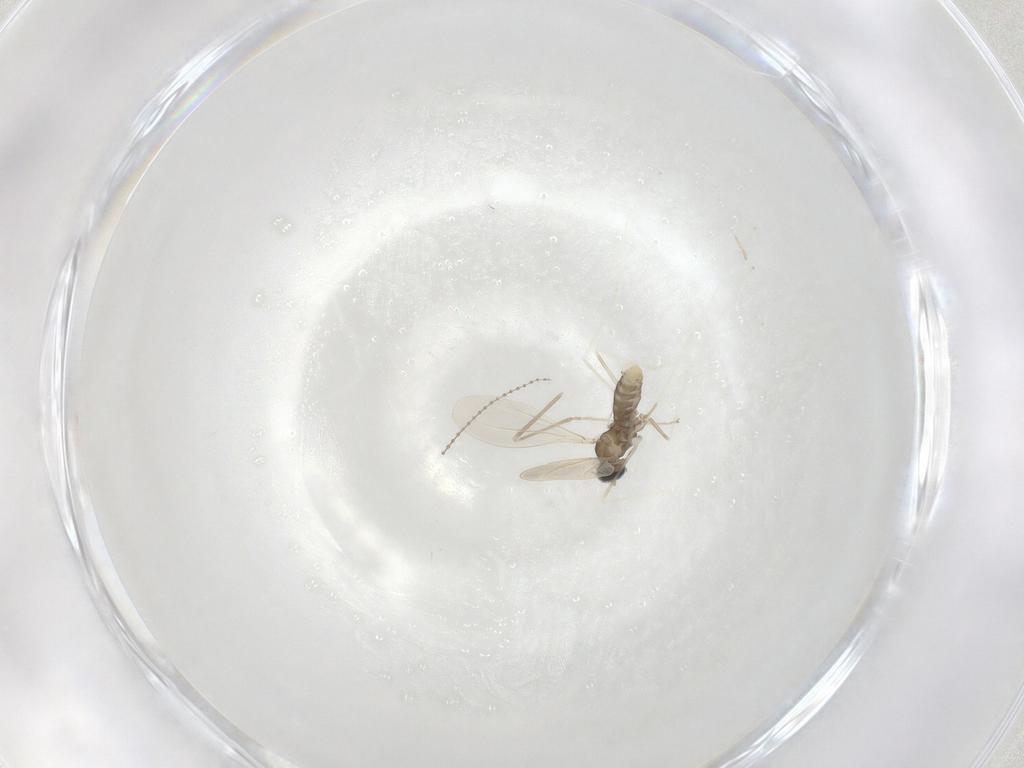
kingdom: Animalia
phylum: Arthropoda
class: Insecta
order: Diptera
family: Cecidomyiidae
